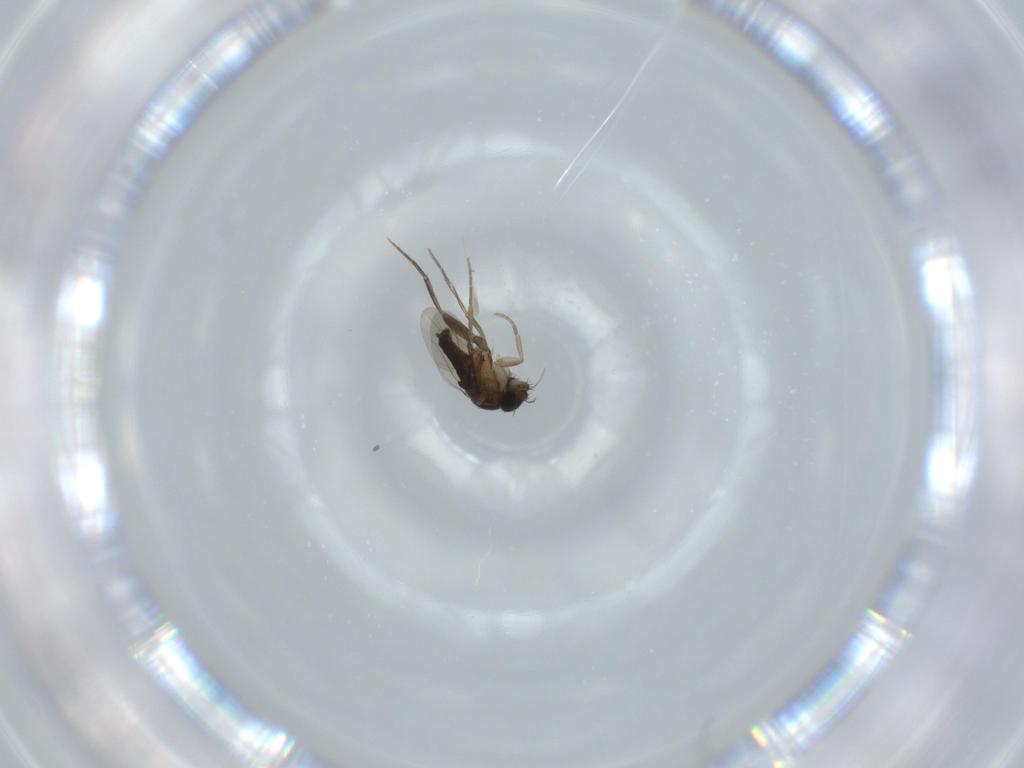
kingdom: Animalia
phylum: Arthropoda
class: Insecta
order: Diptera
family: Phoridae
